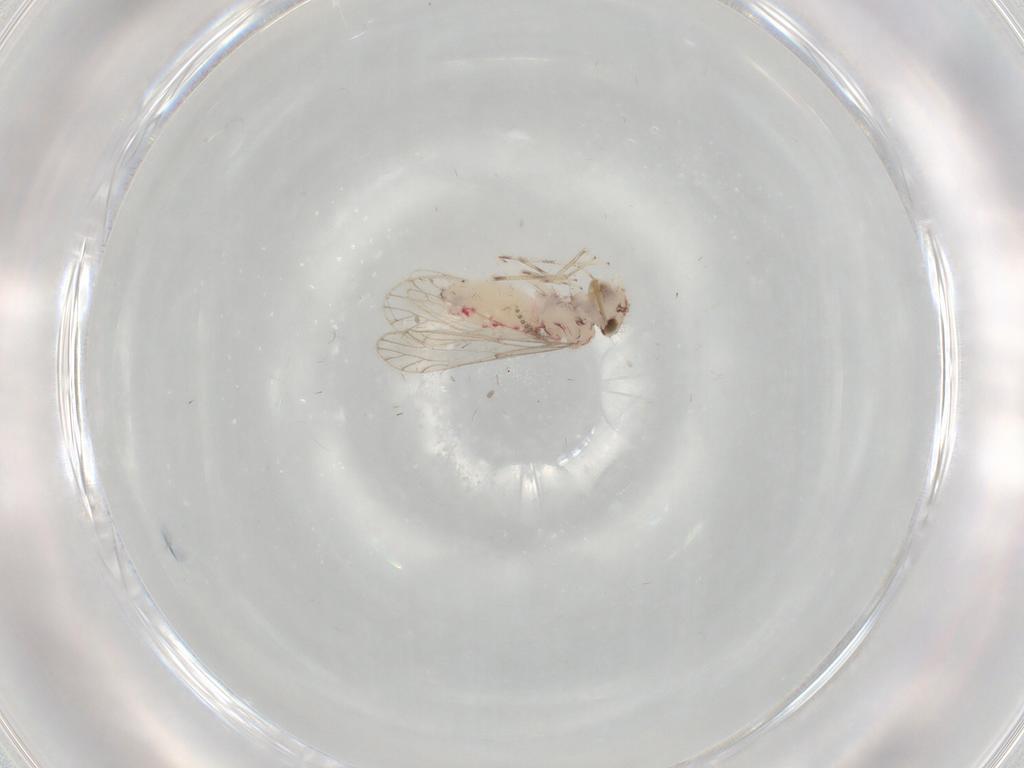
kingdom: Animalia
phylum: Arthropoda
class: Insecta
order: Psocodea
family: Caeciliusidae
